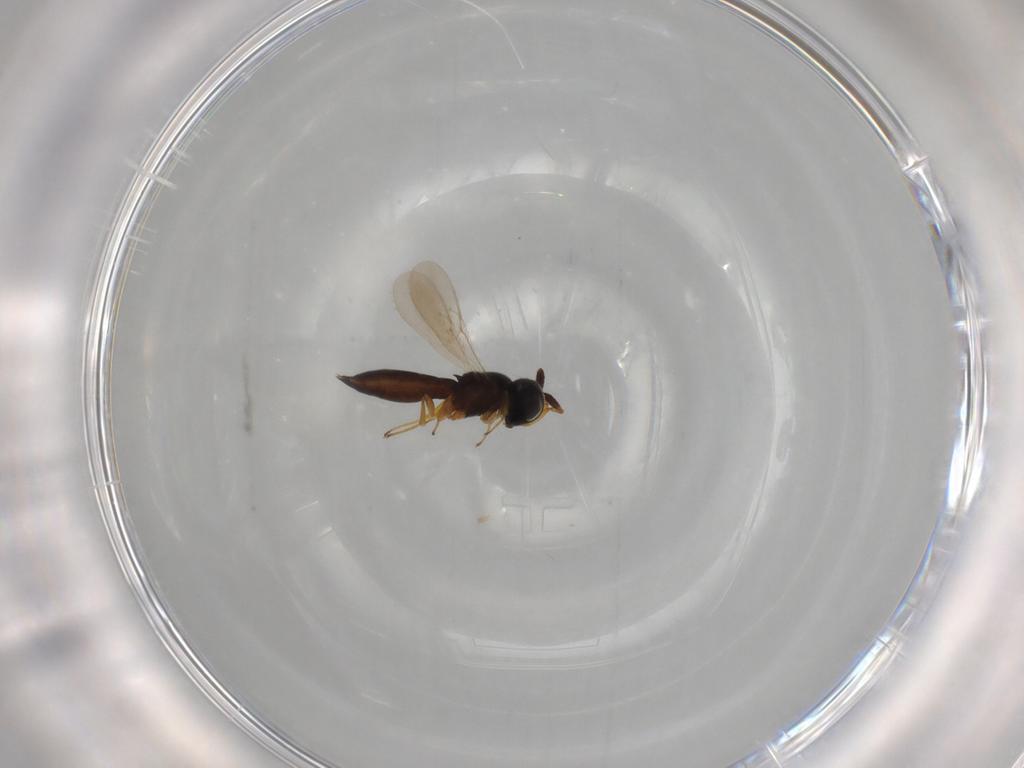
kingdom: Animalia
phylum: Arthropoda
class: Insecta
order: Hymenoptera
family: Scelionidae
